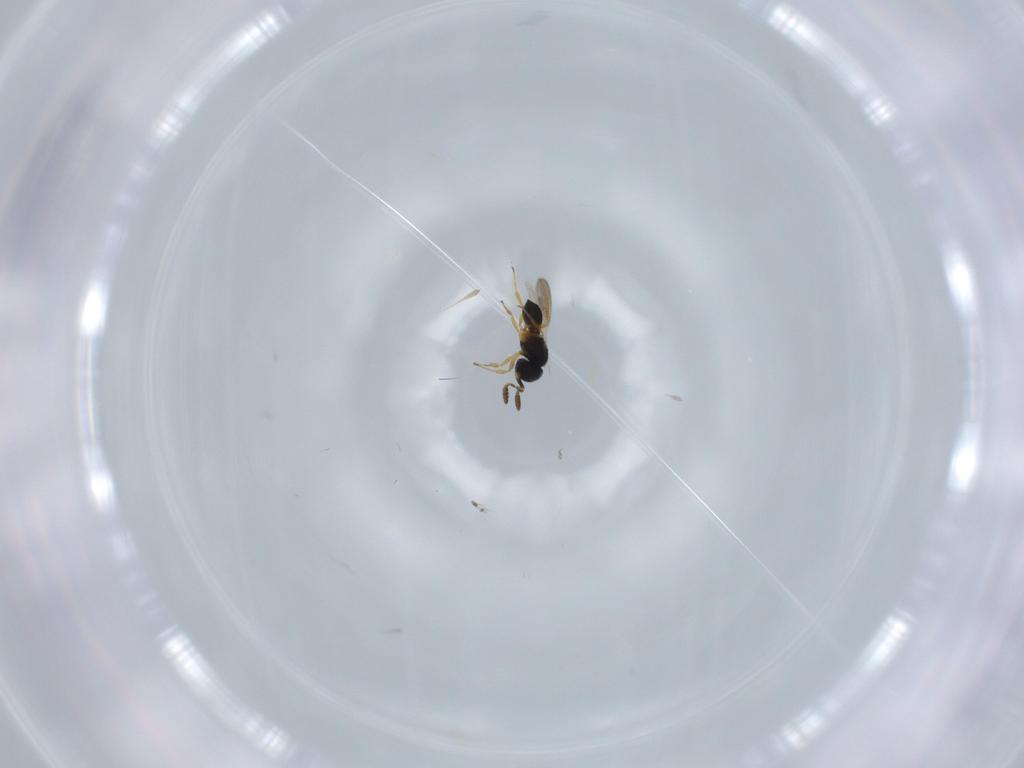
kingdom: Animalia
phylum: Arthropoda
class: Insecta
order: Hymenoptera
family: Scelionidae
